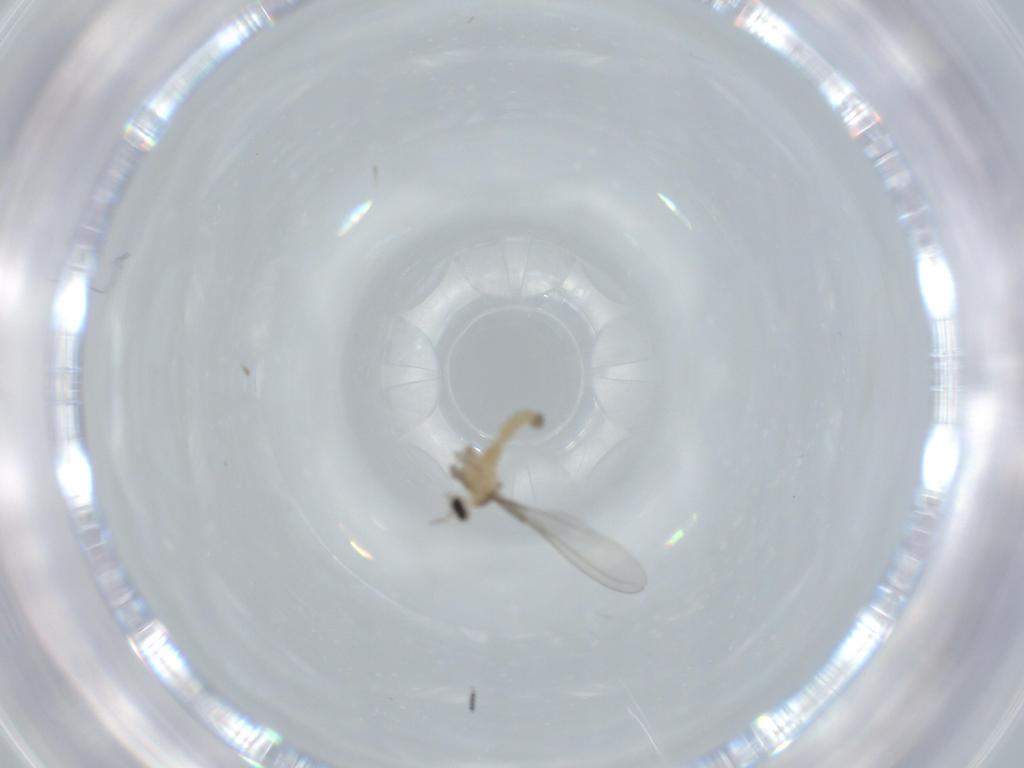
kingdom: Animalia
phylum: Arthropoda
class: Insecta
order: Diptera
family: Cecidomyiidae
